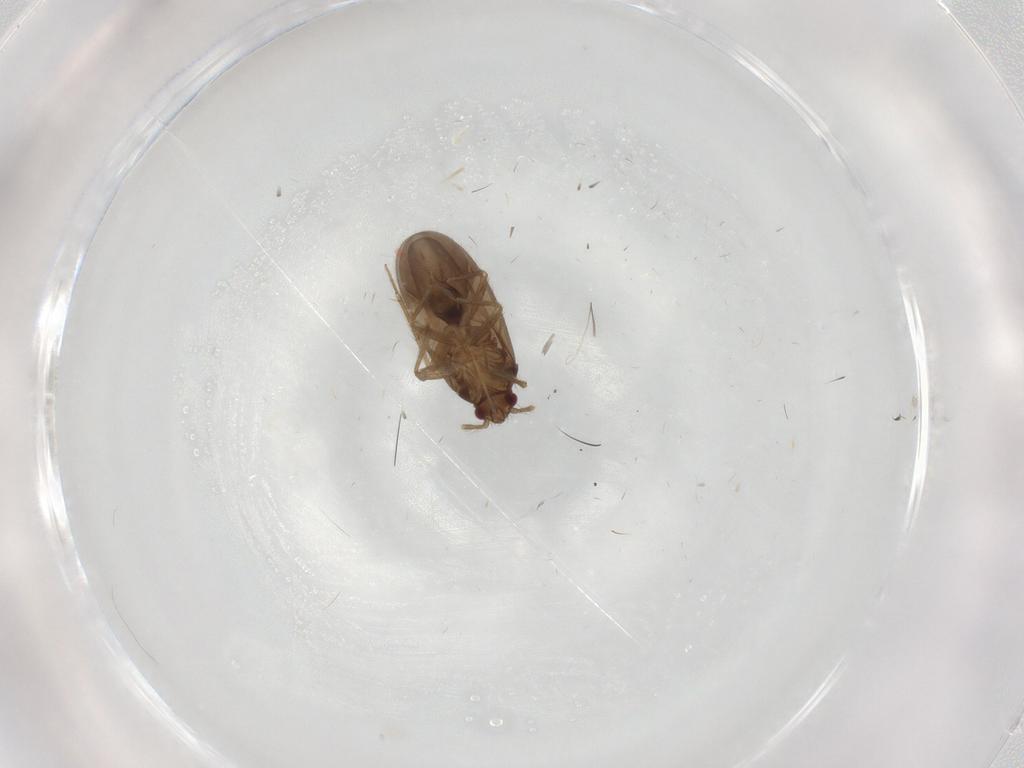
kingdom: Animalia
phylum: Arthropoda
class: Insecta
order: Hemiptera
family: Ceratocombidae
